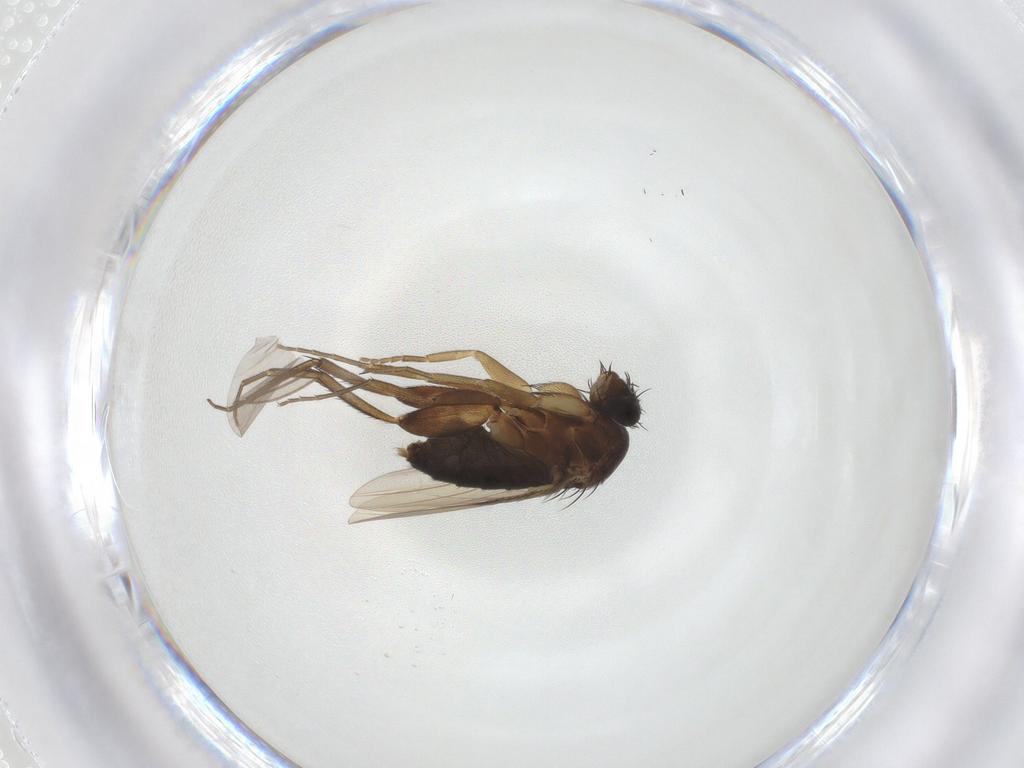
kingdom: Animalia
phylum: Arthropoda
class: Insecta
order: Diptera
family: Phoridae
